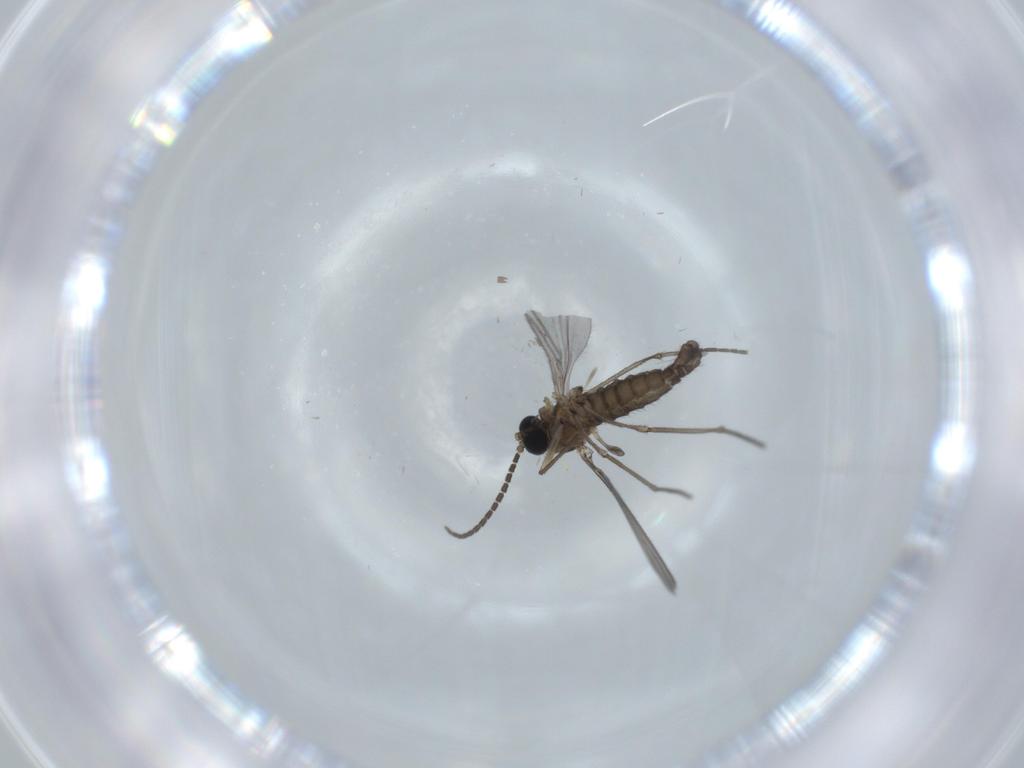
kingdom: Animalia
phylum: Arthropoda
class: Insecta
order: Diptera
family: Sciaridae
